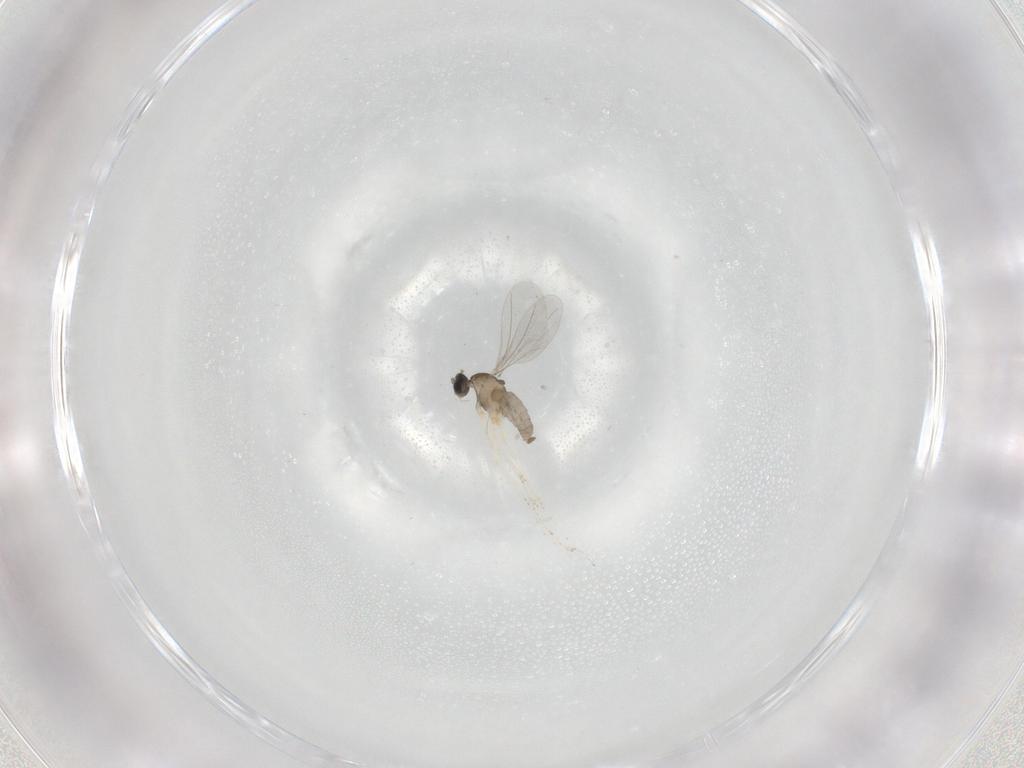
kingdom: Animalia
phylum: Arthropoda
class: Insecta
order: Diptera
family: Cecidomyiidae
